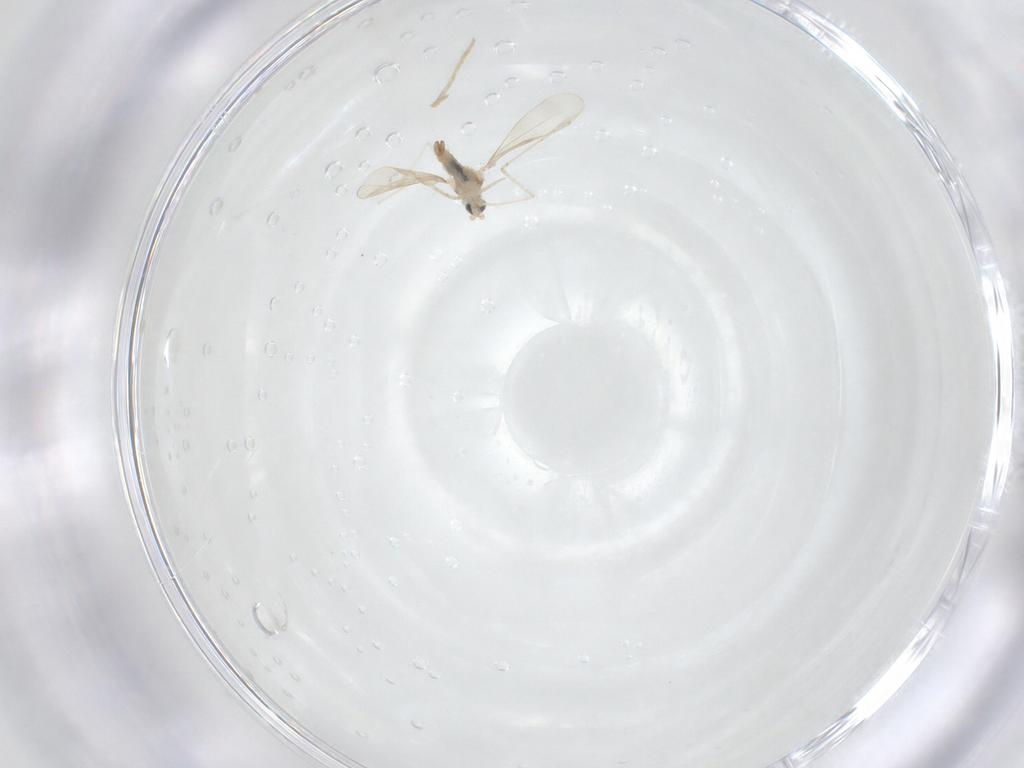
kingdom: Animalia
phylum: Arthropoda
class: Insecta
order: Diptera
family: Cecidomyiidae
